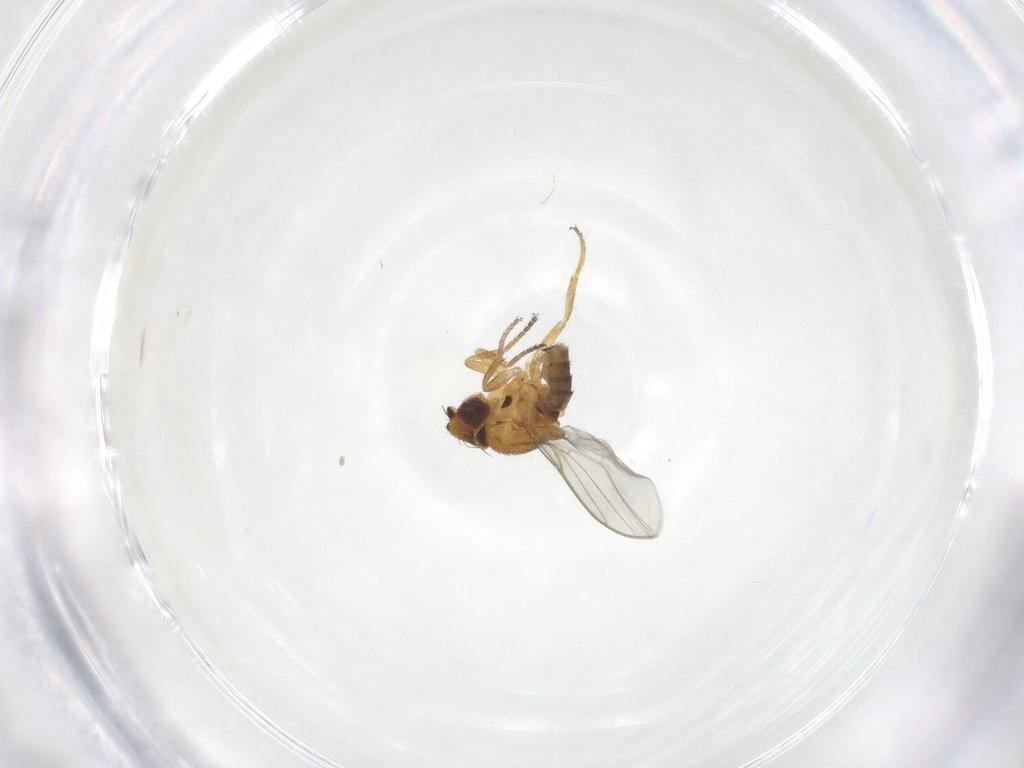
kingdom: Animalia
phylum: Arthropoda
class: Insecta
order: Diptera
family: Chloropidae
